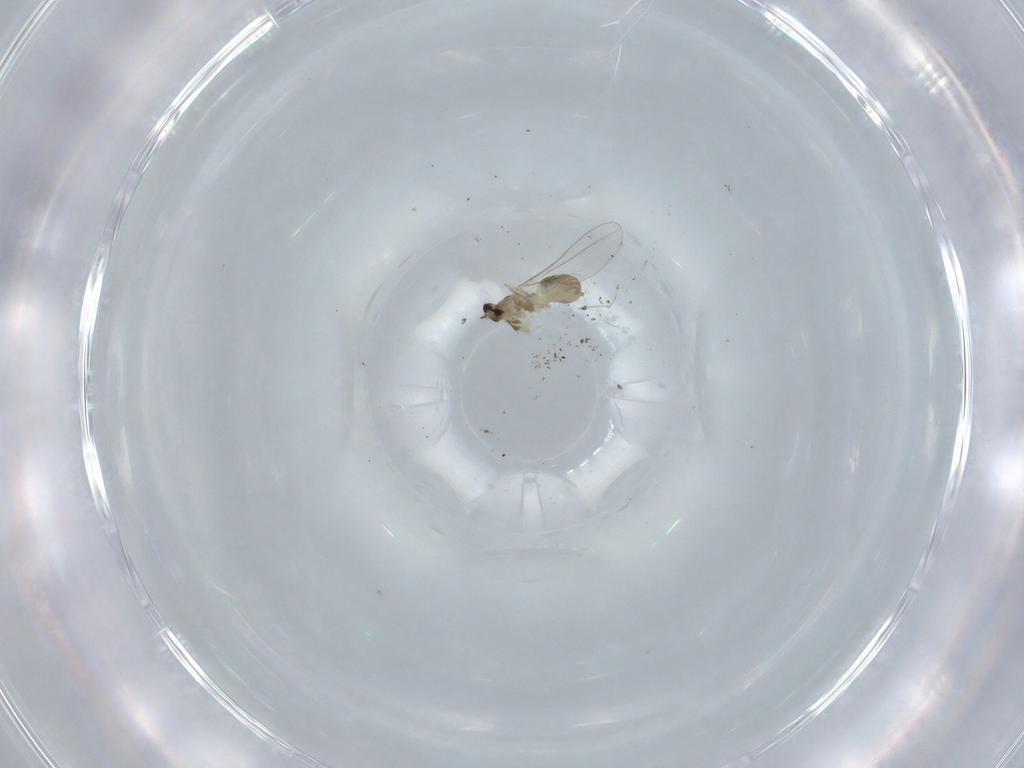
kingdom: Animalia
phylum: Arthropoda
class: Insecta
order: Diptera
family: Cecidomyiidae
